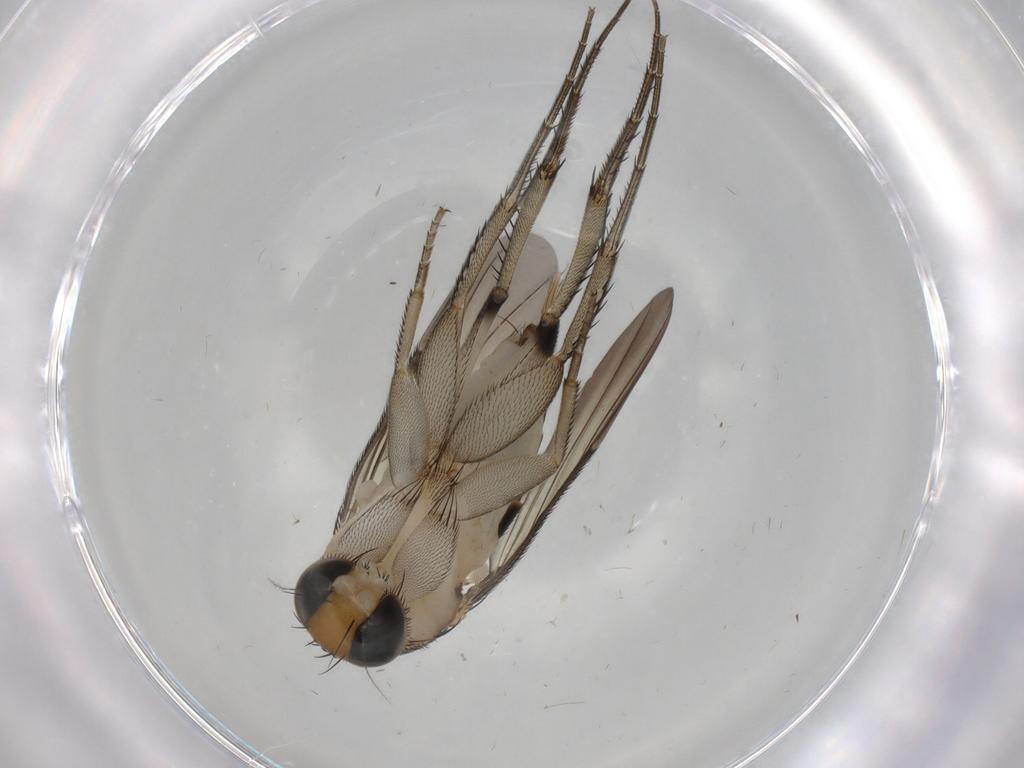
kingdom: Animalia
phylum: Arthropoda
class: Insecta
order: Diptera
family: Phoridae
